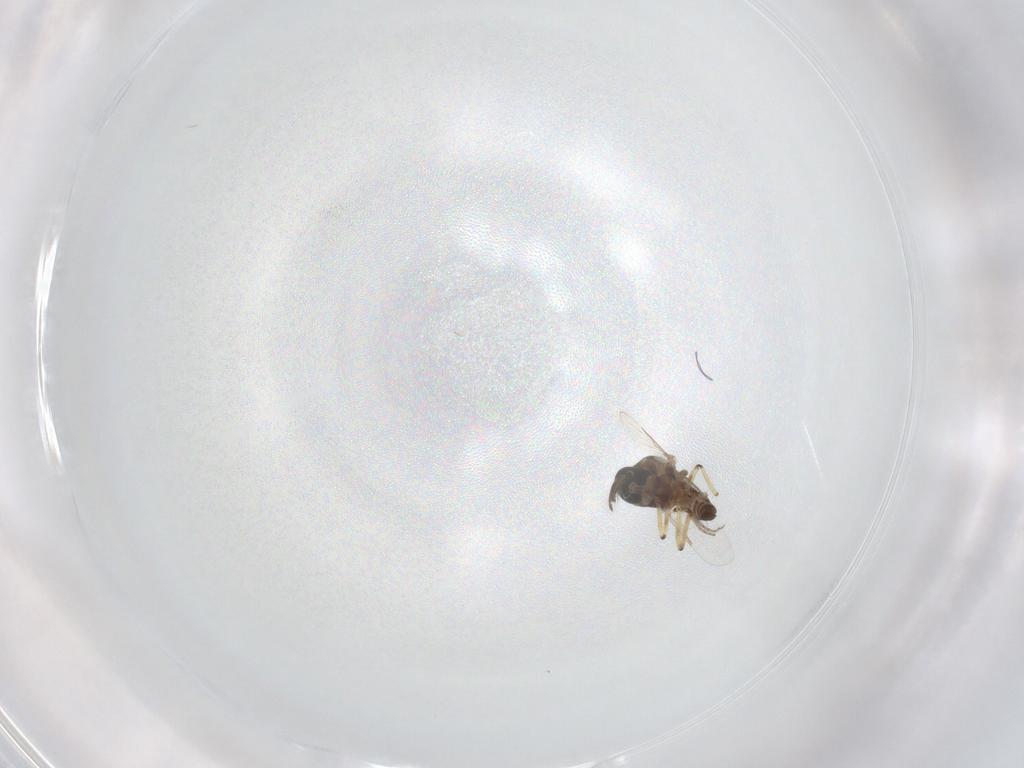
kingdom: Animalia
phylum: Arthropoda
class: Insecta
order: Diptera
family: Ceratopogonidae
